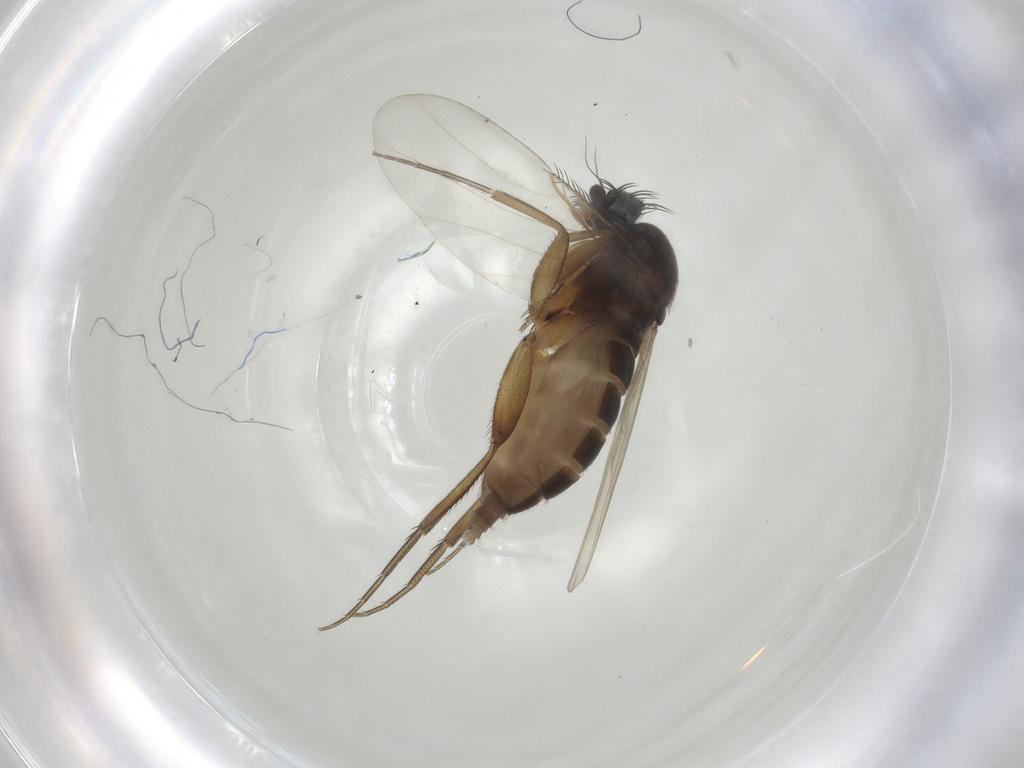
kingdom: Animalia
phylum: Arthropoda
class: Insecta
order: Diptera
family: Phoridae
